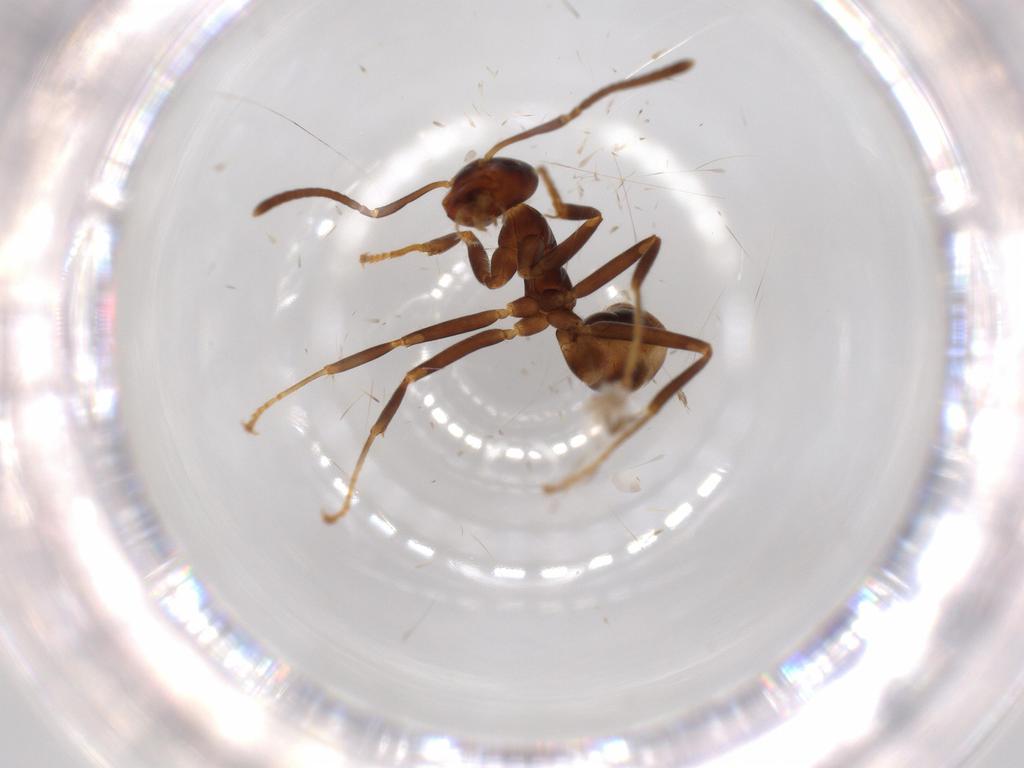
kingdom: Animalia
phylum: Arthropoda
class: Insecta
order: Hymenoptera
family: Formicidae
